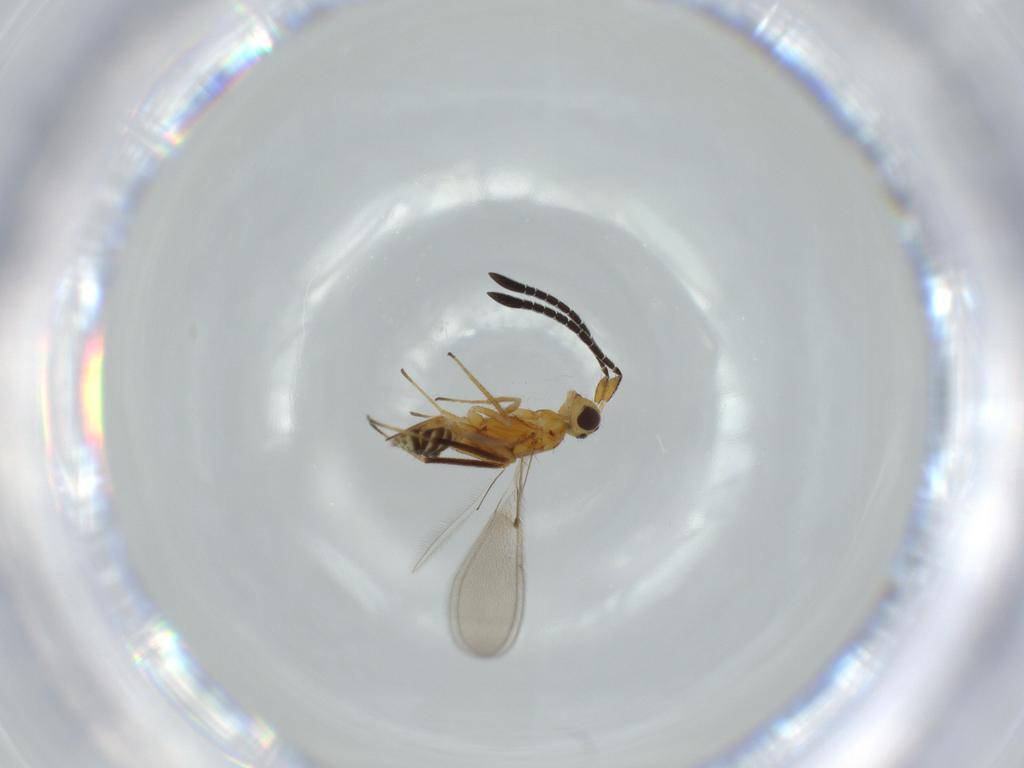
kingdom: Animalia
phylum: Arthropoda
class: Insecta
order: Hymenoptera
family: Mymaridae
